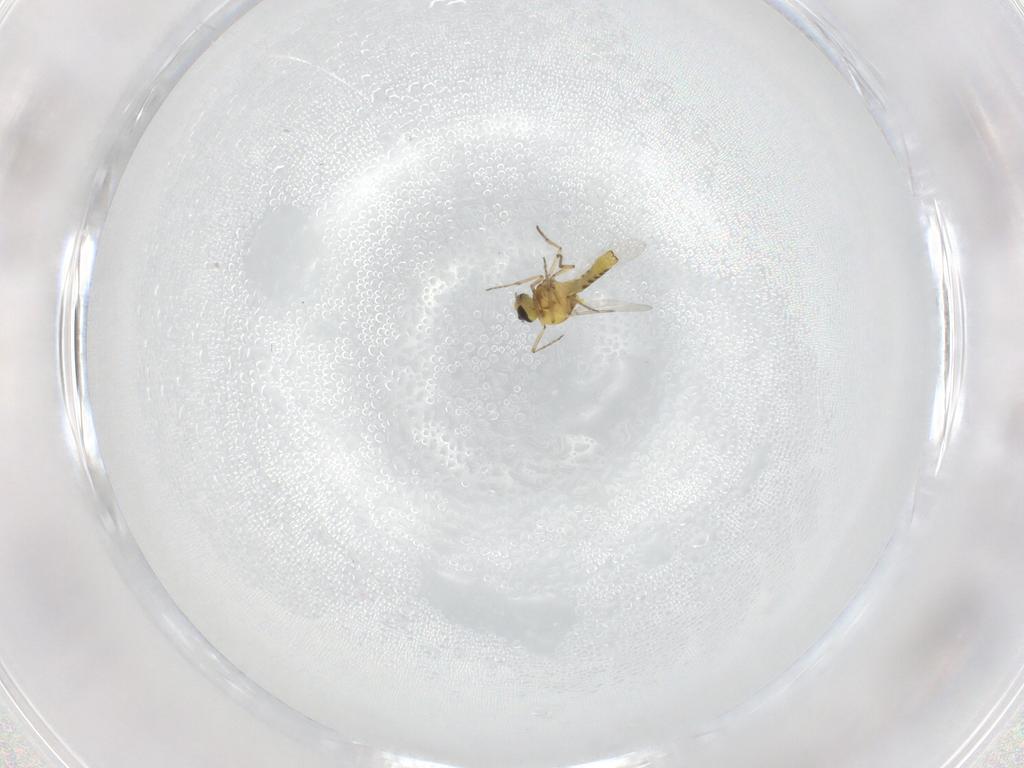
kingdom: Animalia
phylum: Arthropoda
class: Insecta
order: Diptera
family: Ceratopogonidae
